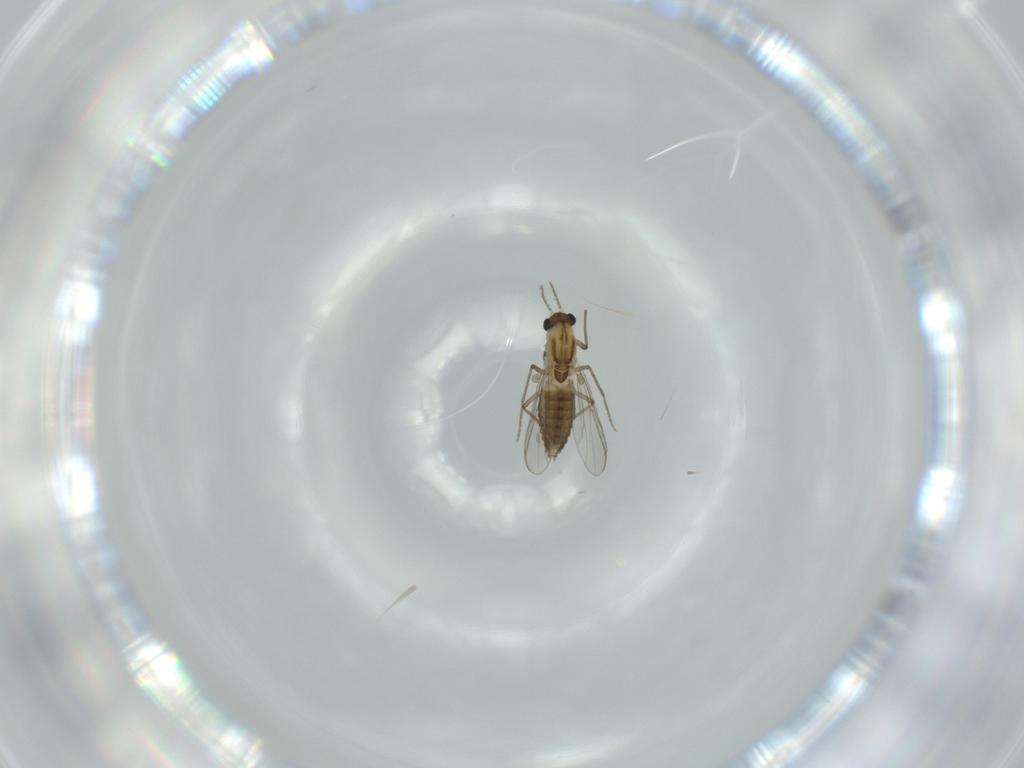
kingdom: Animalia
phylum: Arthropoda
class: Insecta
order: Diptera
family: Chironomidae
